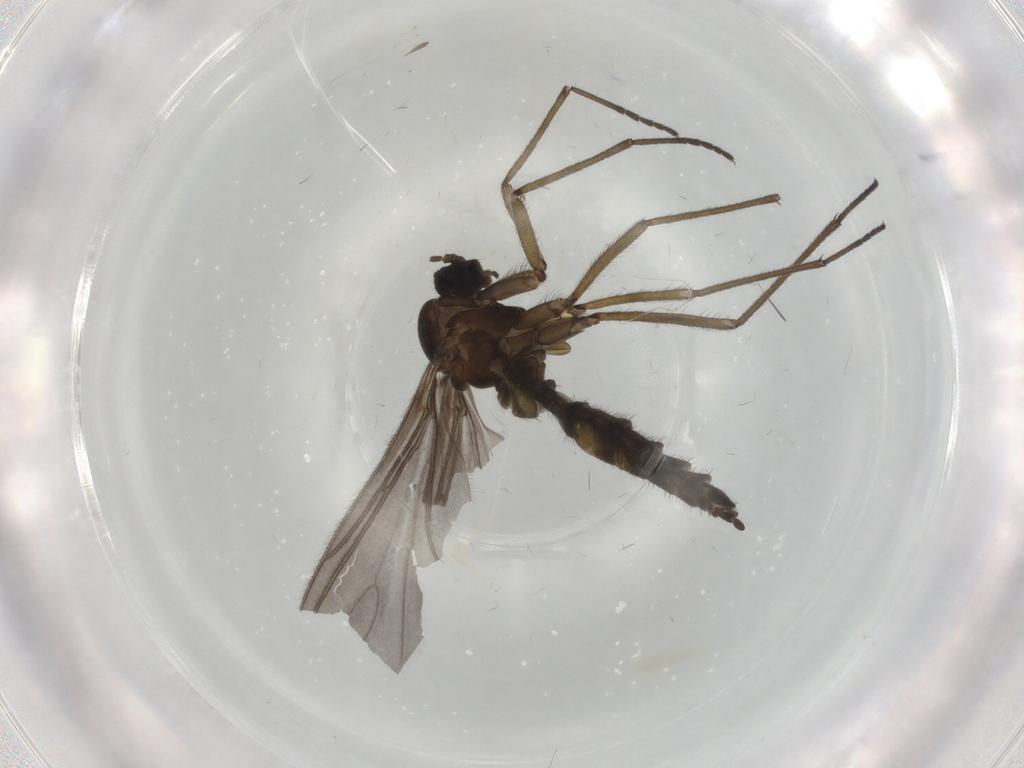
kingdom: Animalia
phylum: Arthropoda
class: Insecta
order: Diptera
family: Sciaridae
